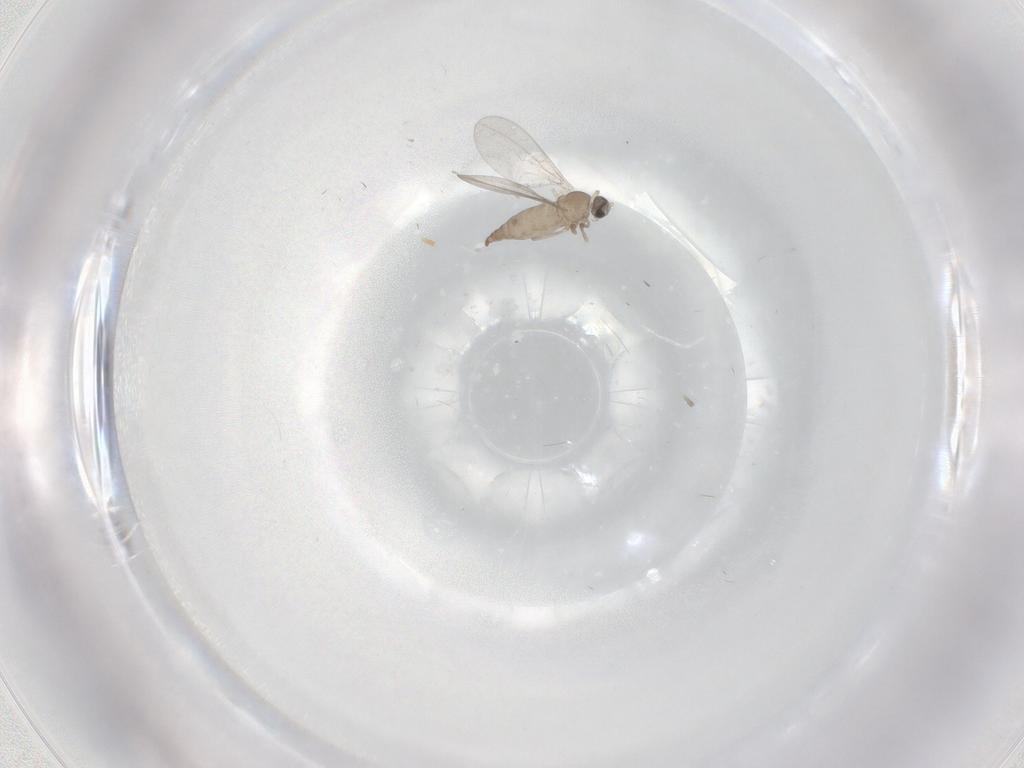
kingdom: Animalia
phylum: Arthropoda
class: Insecta
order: Diptera
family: Cecidomyiidae
